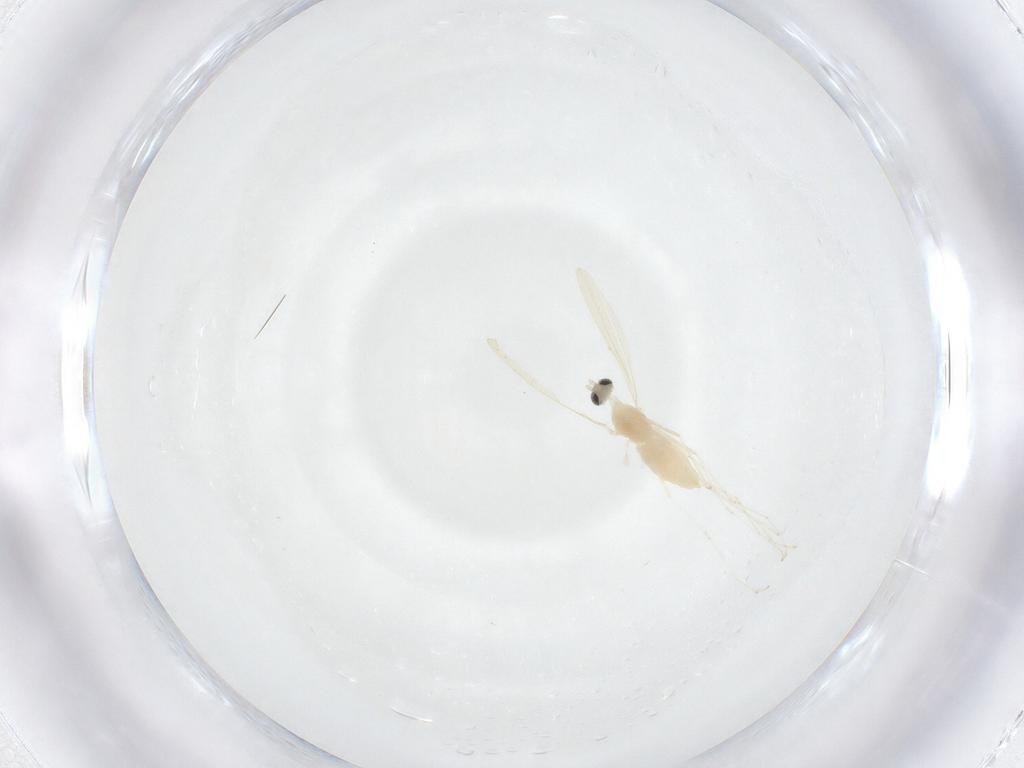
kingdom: Animalia
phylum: Arthropoda
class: Insecta
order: Diptera
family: Cecidomyiidae
